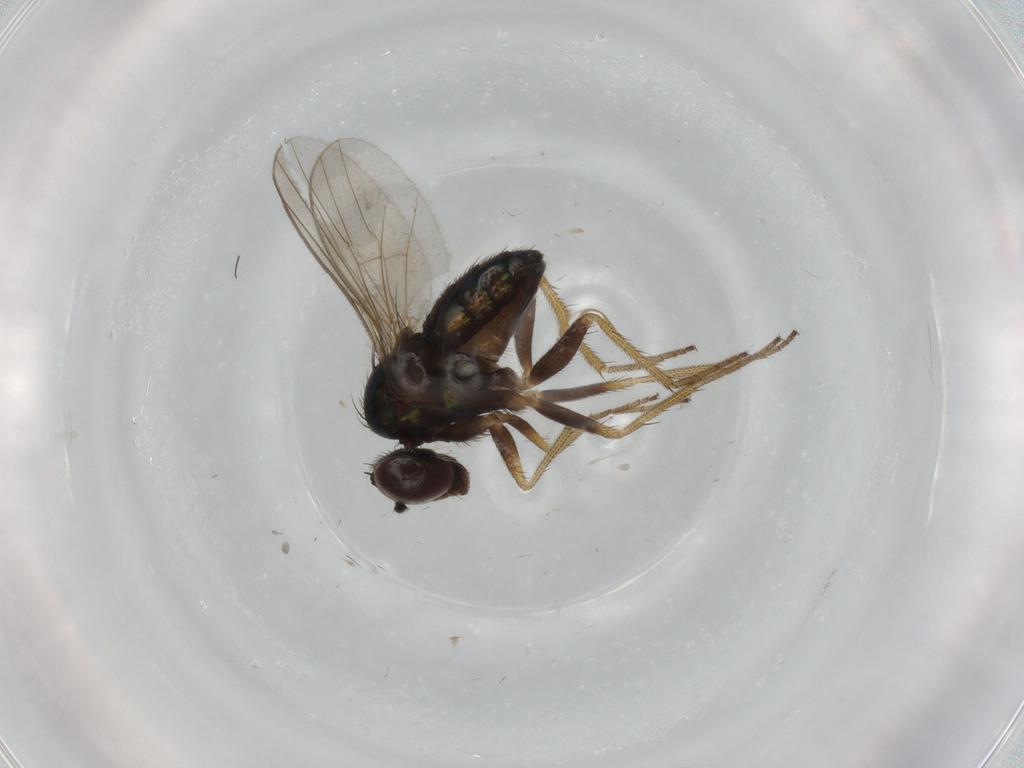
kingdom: Animalia
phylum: Arthropoda
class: Insecta
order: Diptera
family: Dolichopodidae
